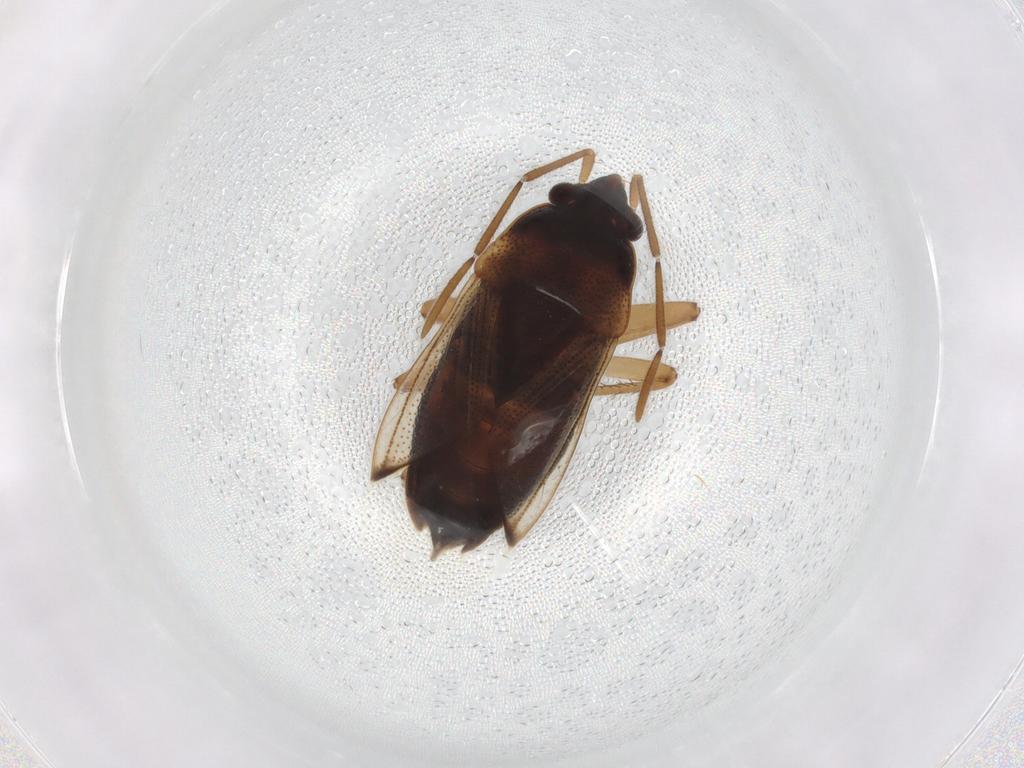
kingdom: Animalia
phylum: Arthropoda
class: Insecta
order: Hemiptera
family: Rhyparochromidae
